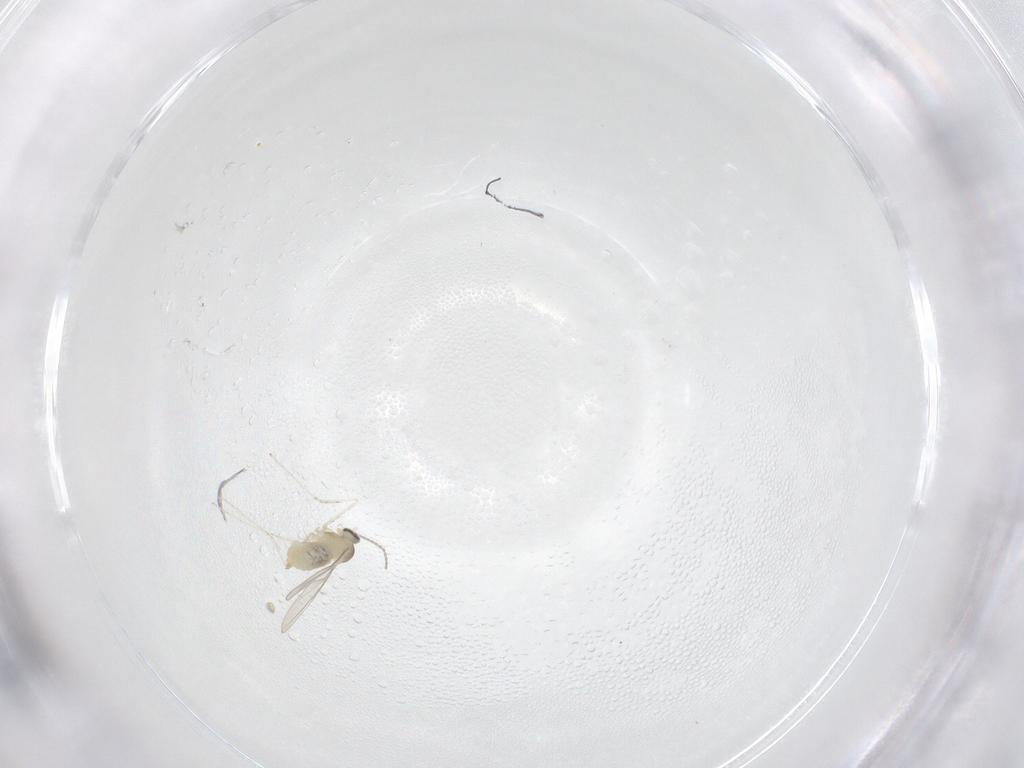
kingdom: Animalia
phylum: Arthropoda
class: Insecta
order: Diptera
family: Cecidomyiidae
